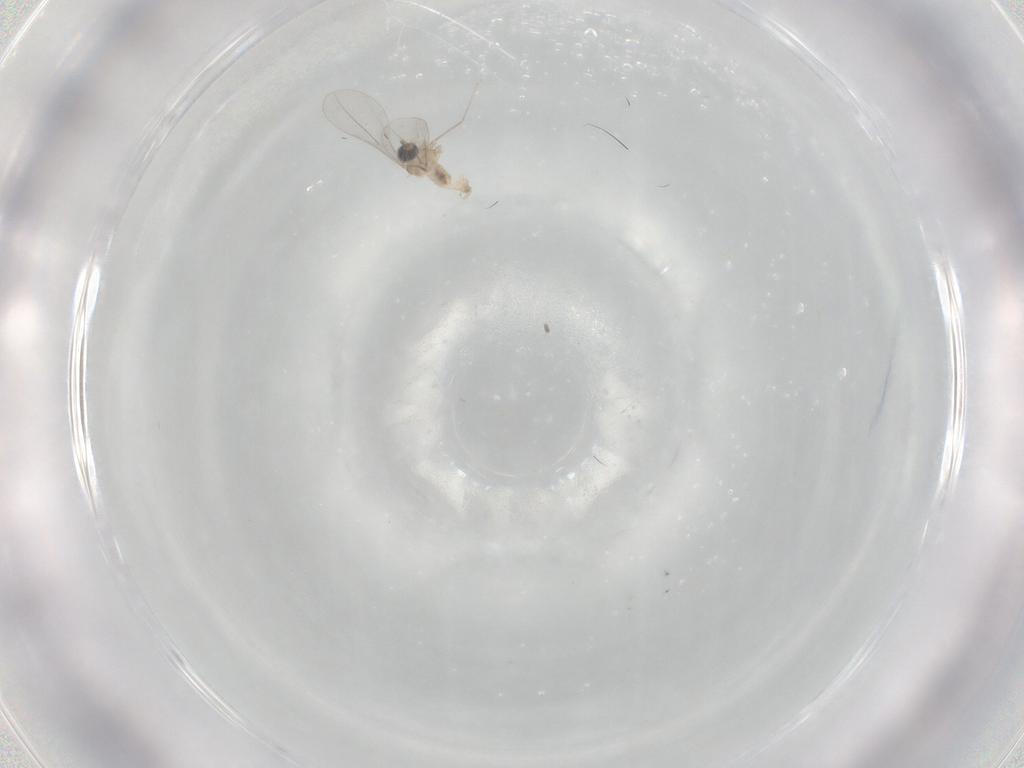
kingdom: Animalia
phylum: Arthropoda
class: Insecta
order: Diptera
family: Cecidomyiidae
